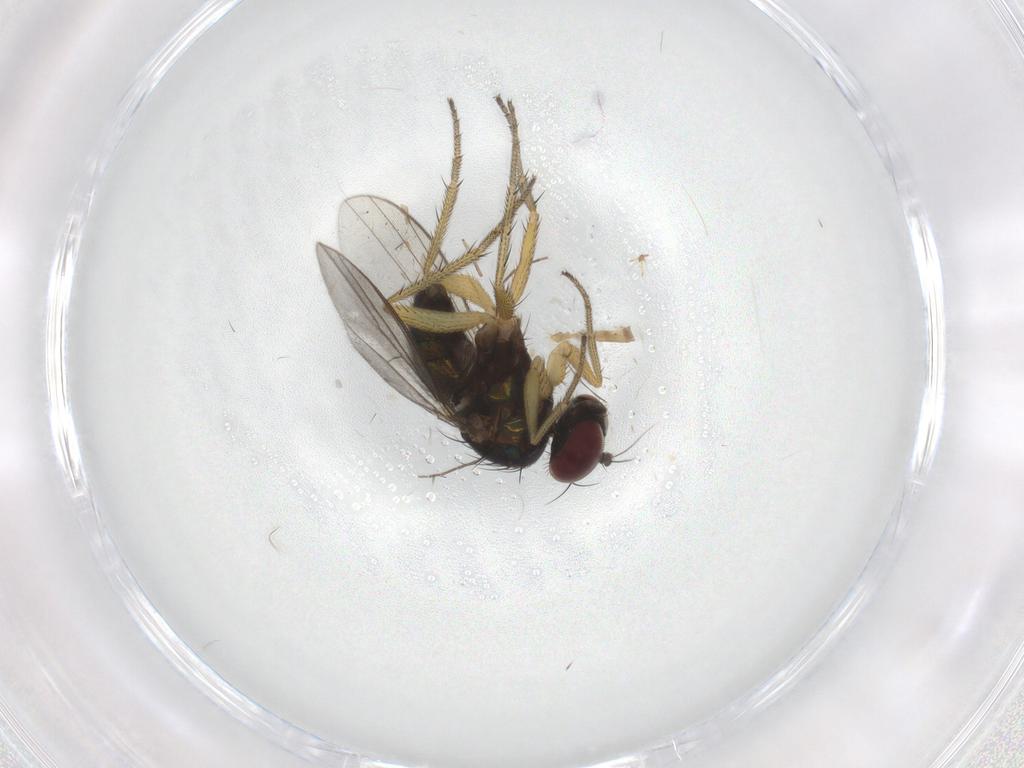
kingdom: Animalia
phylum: Arthropoda
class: Insecta
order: Diptera
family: Chironomidae
